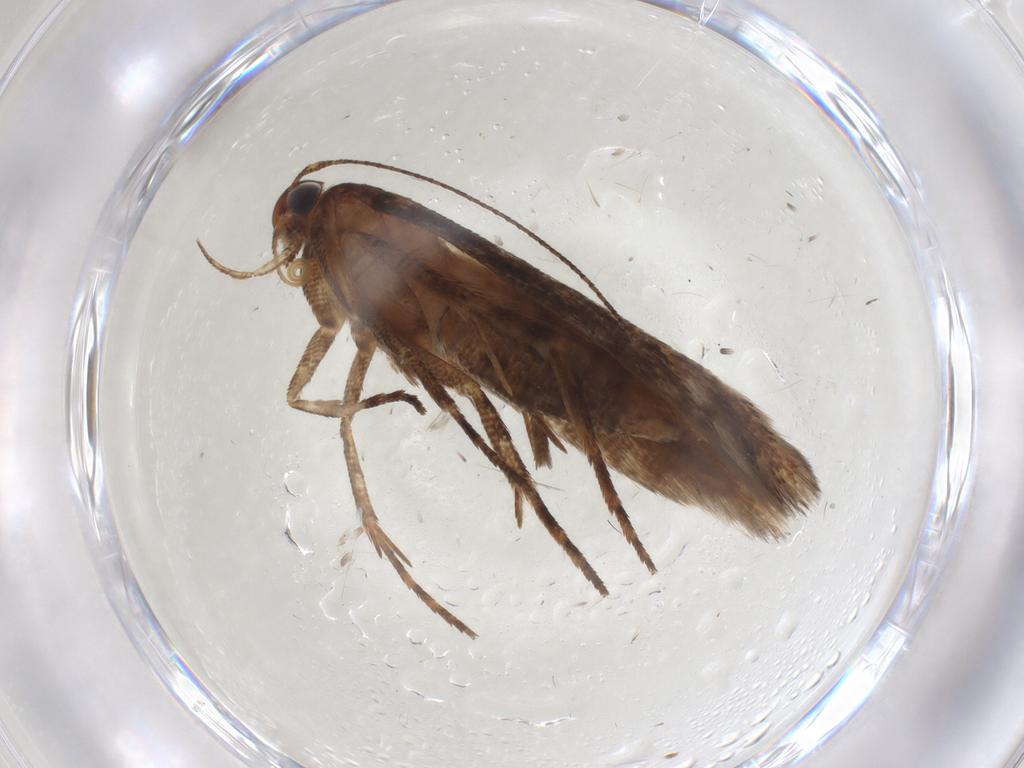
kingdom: Animalia
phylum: Arthropoda
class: Insecta
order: Lepidoptera
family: Gelechiidae
